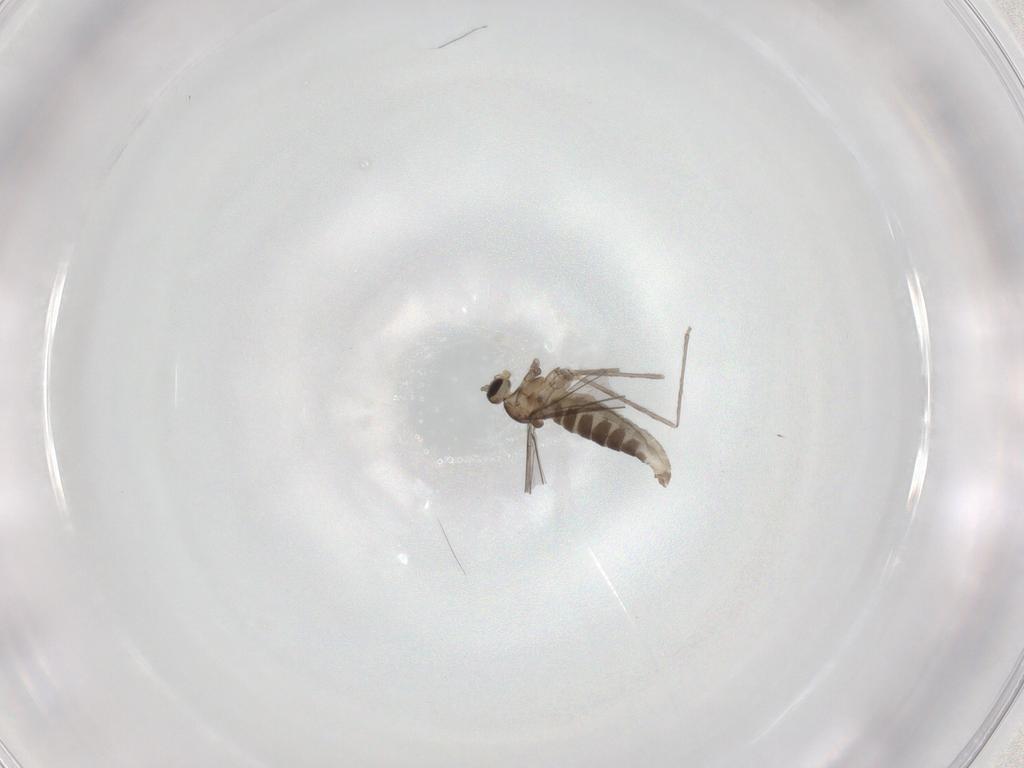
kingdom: Animalia
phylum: Arthropoda
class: Insecta
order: Diptera
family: Cecidomyiidae
